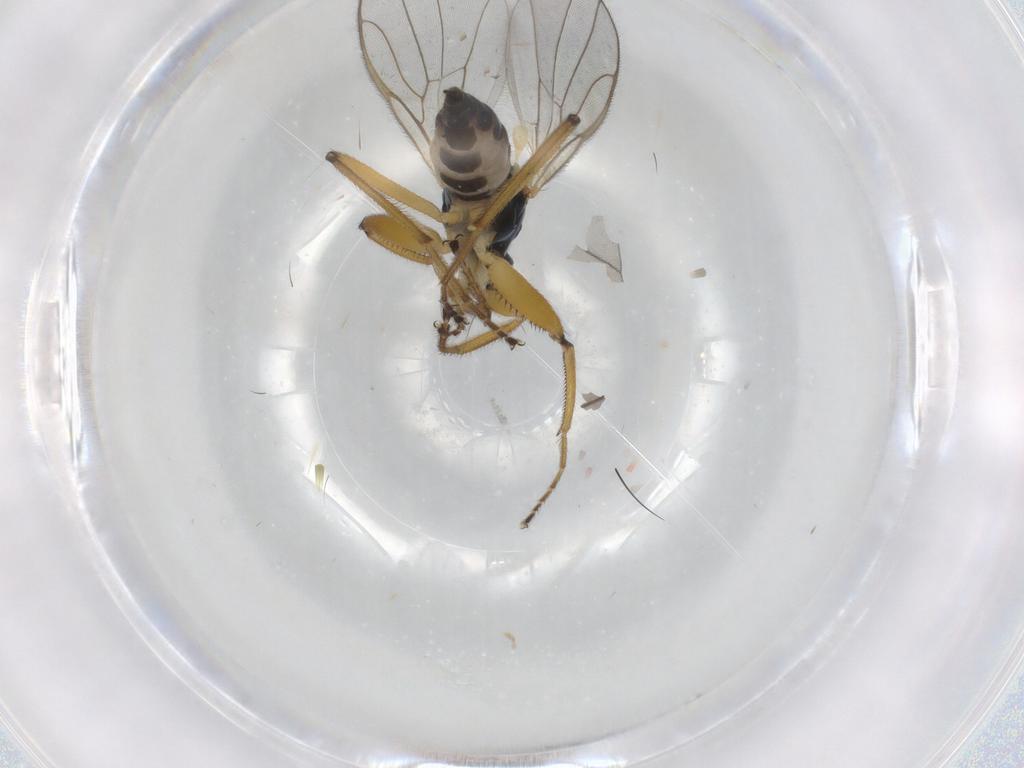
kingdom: Animalia
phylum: Arthropoda
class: Insecta
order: Diptera
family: Hybotidae
